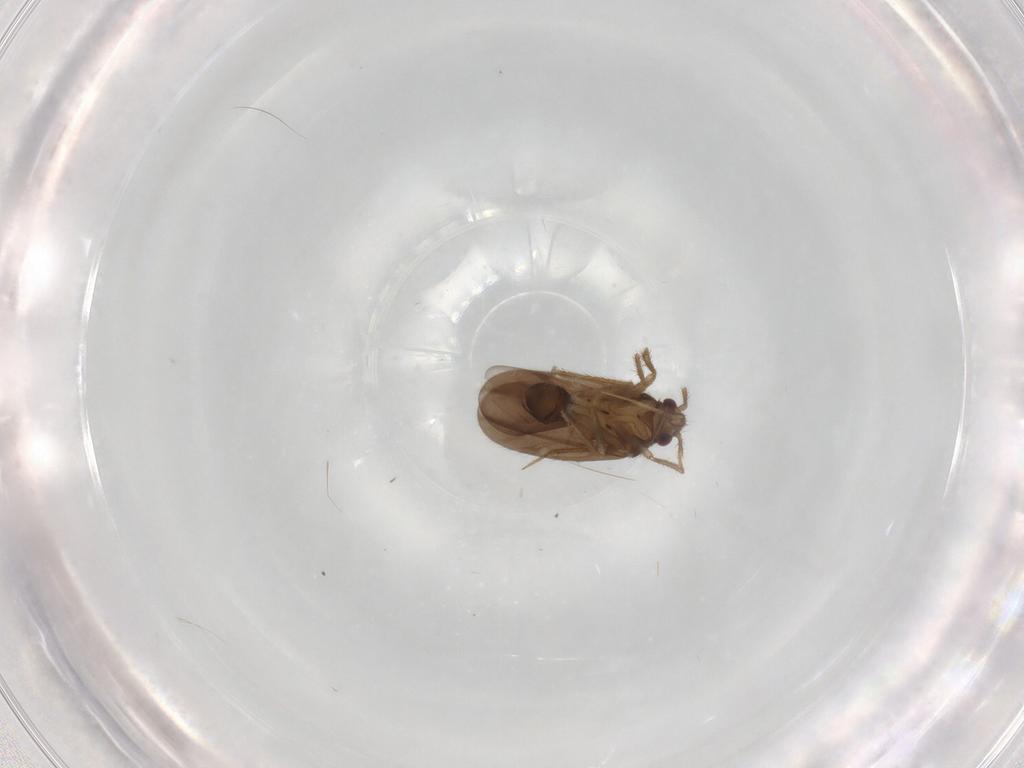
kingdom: Animalia
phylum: Arthropoda
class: Insecta
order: Hemiptera
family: Ceratocombidae
